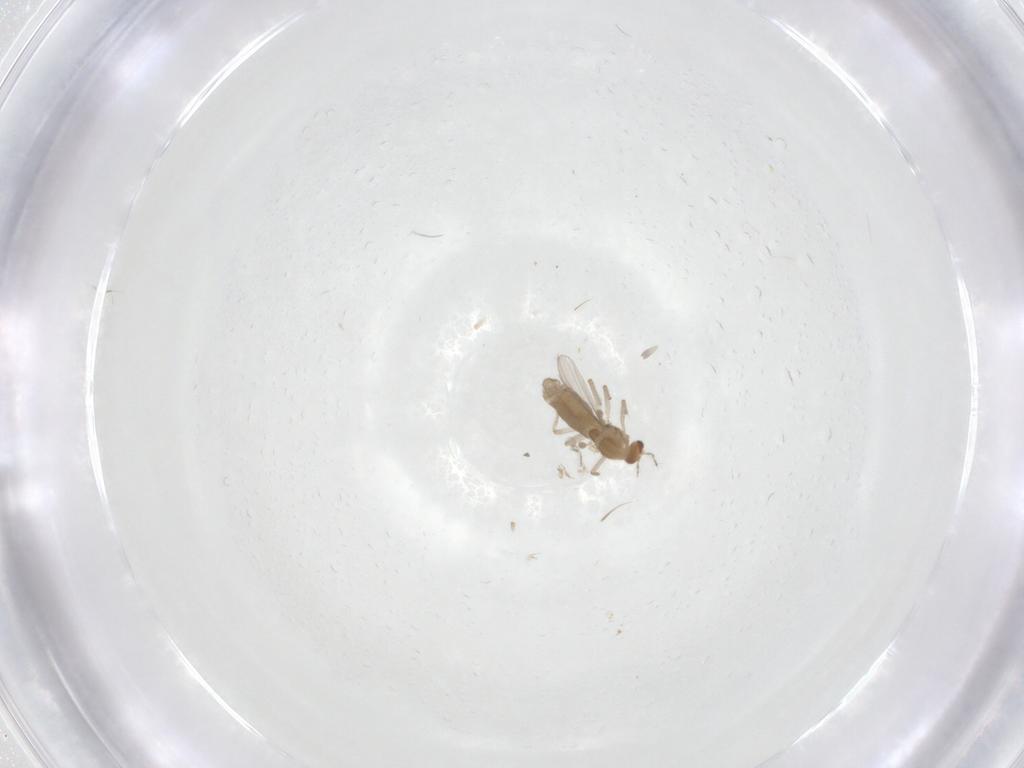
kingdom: Animalia
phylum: Arthropoda
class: Insecta
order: Diptera
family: Chironomidae
